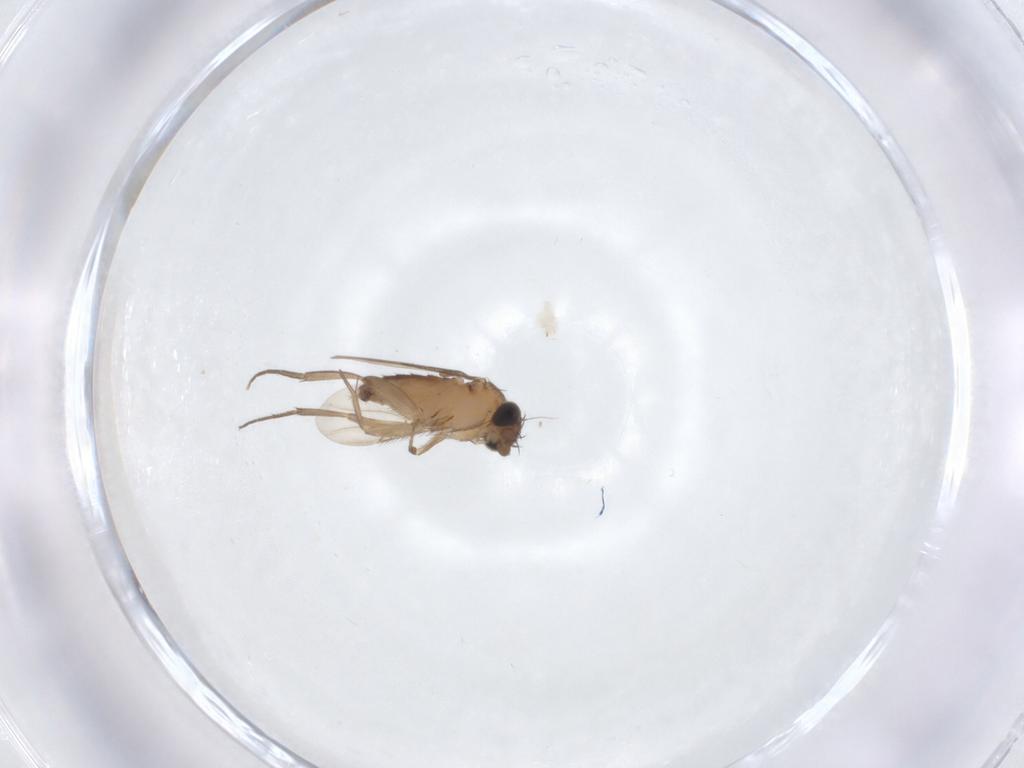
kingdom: Animalia
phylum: Arthropoda
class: Insecta
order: Diptera
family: Phoridae
